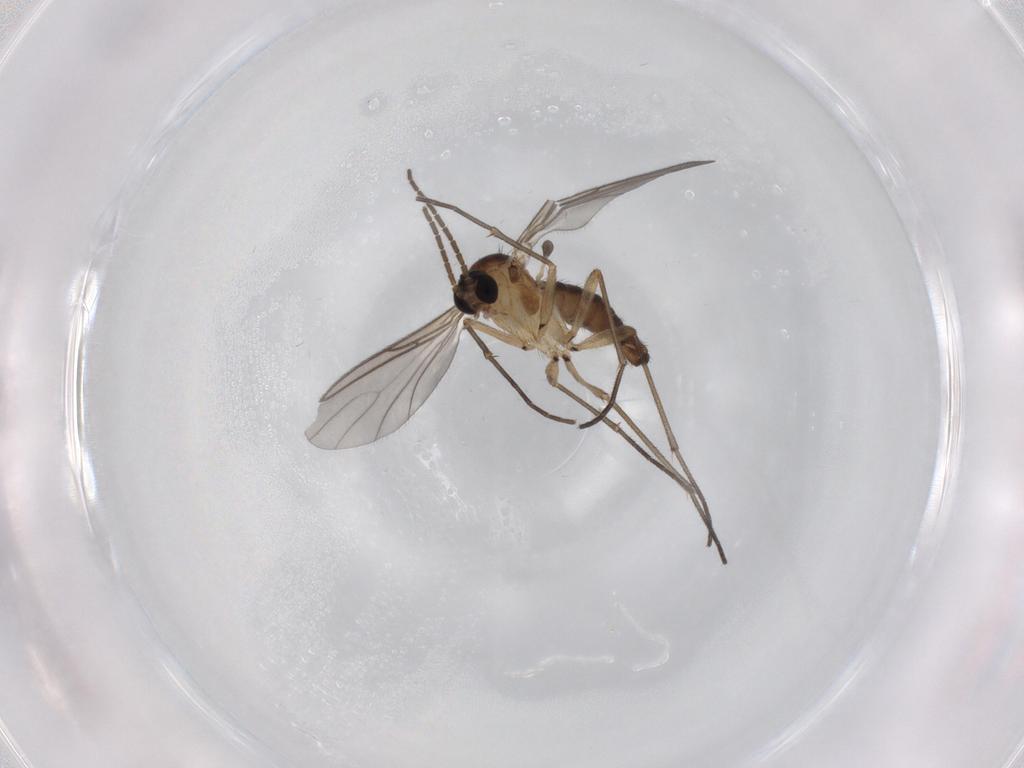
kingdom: Animalia
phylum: Arthropoda
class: Insecta
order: Diptera
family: Sciaridae
